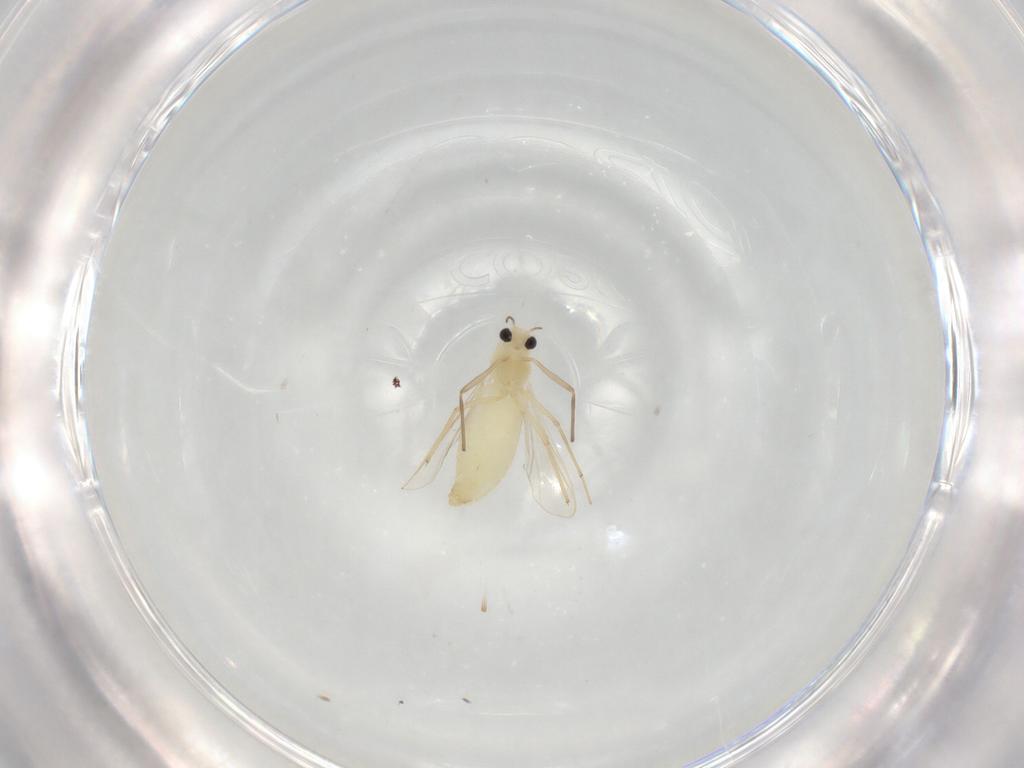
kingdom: Animalia
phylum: Arthropoda
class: Insecta
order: Diptera
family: Chironomidae
